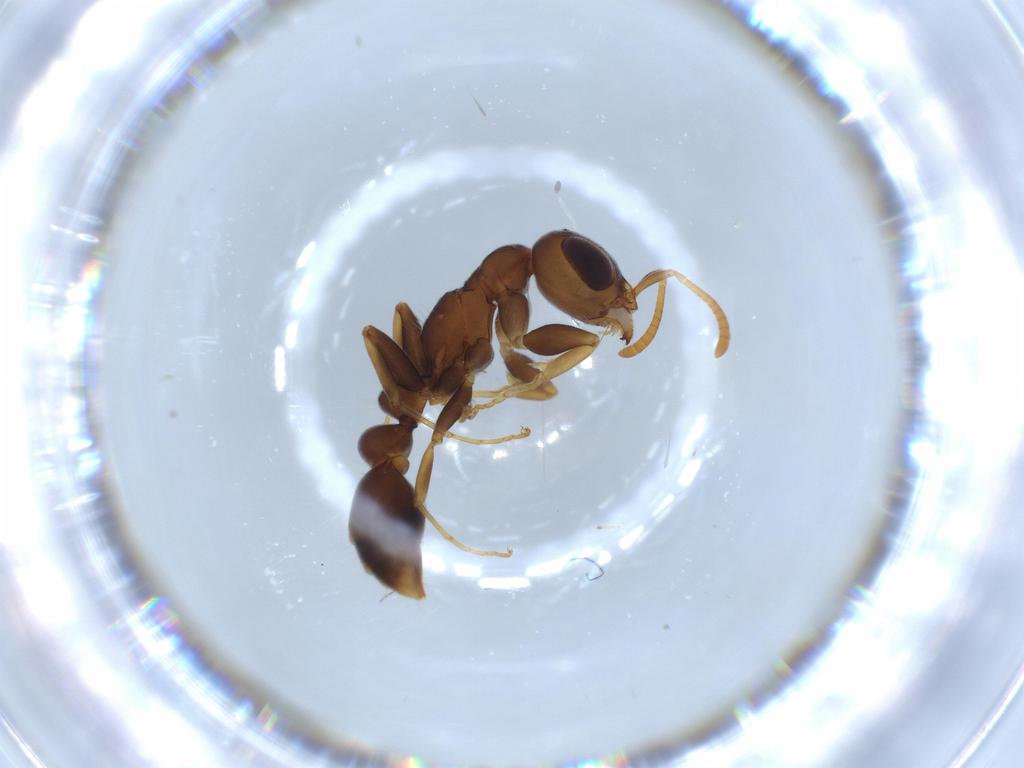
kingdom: Animalia
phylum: Arthropoda
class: Insecta
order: Hymenoptera
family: Formicidae
